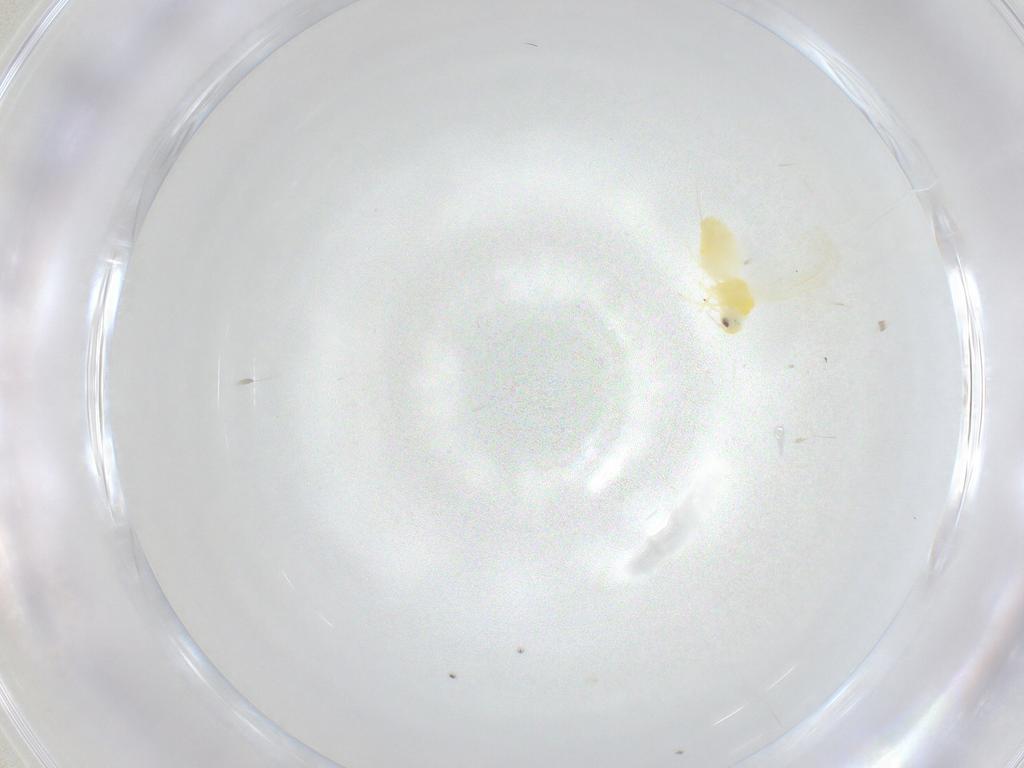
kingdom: Animalia
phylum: Arthropoda
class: Insecta
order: Hemiptera
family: Aleyrodidae
